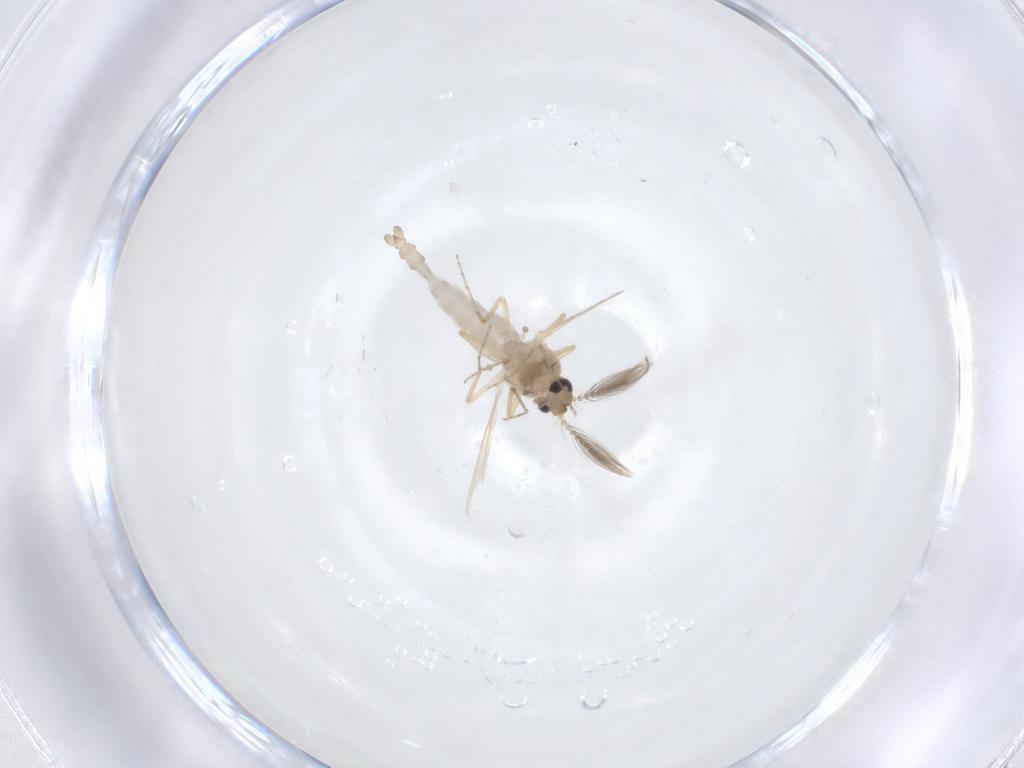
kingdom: Animalia
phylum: Arthropoda
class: Insecta
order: Diptera
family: Ceratopogonidae
